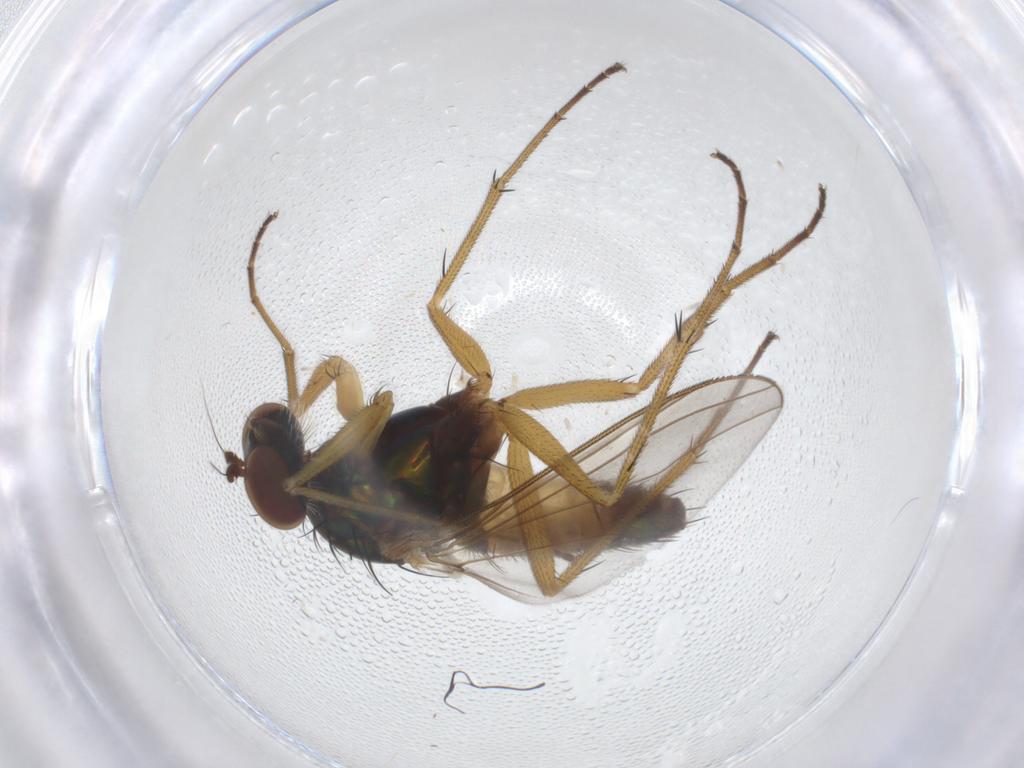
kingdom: Animalia
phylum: Arthropoda
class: Insecta
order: Diptera
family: Dolichopodidae
